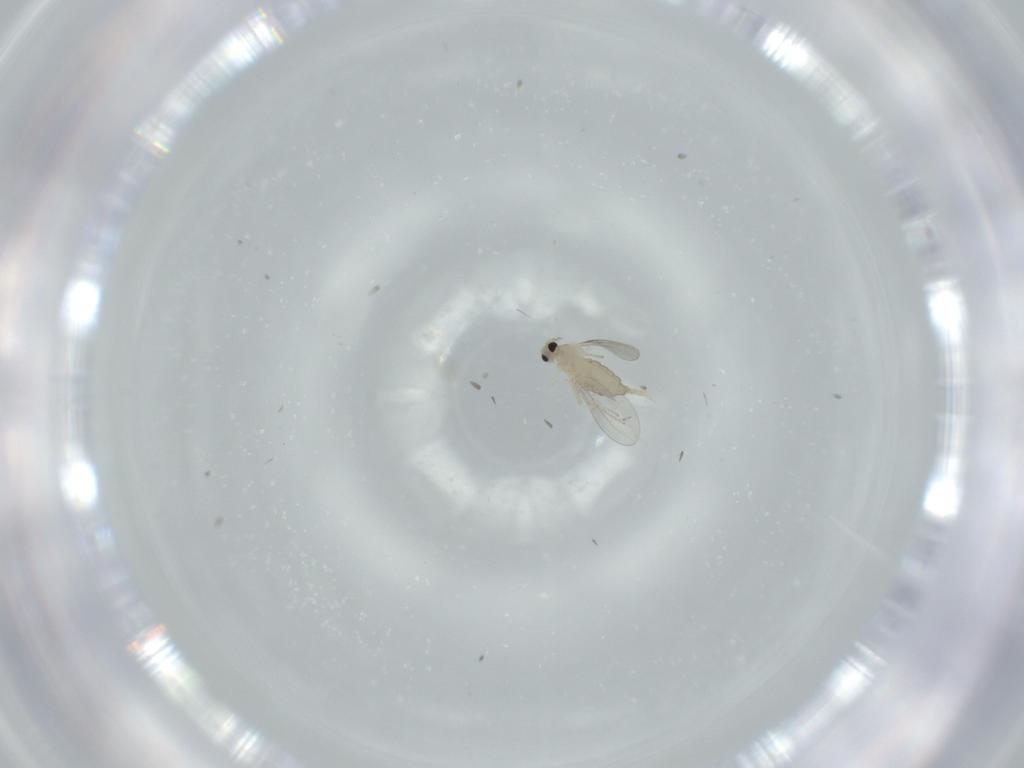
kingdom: Animalia
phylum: Arthropoda
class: Insecta
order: Diptera
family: Cecidomyiidae
